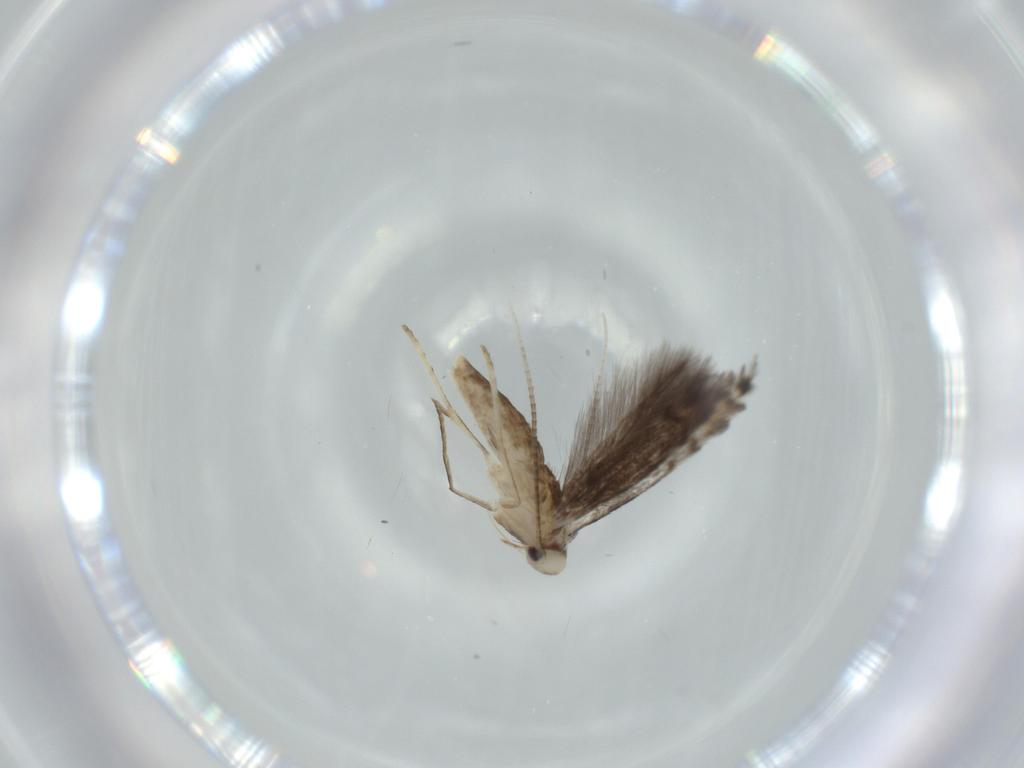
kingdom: Animalia
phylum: Arthropoda
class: Insecta
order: Lepidoptera
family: Gracillariidae
